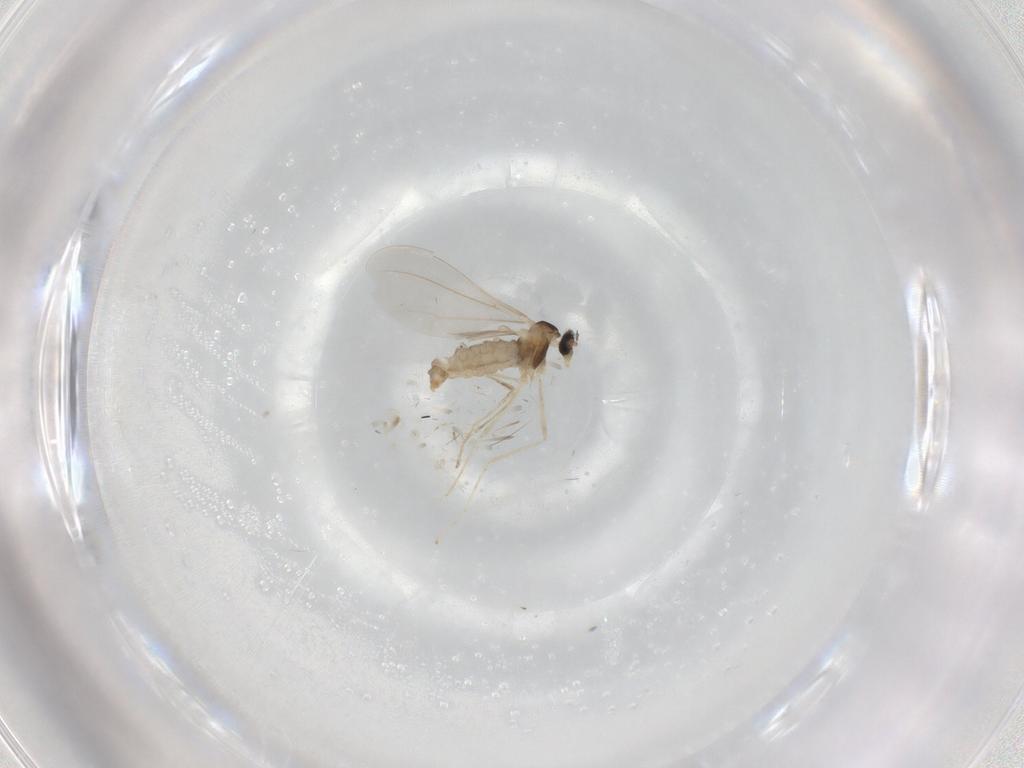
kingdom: Animalia
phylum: Arthropoda
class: Insecta
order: Diptera
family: Cecidomyiidae
